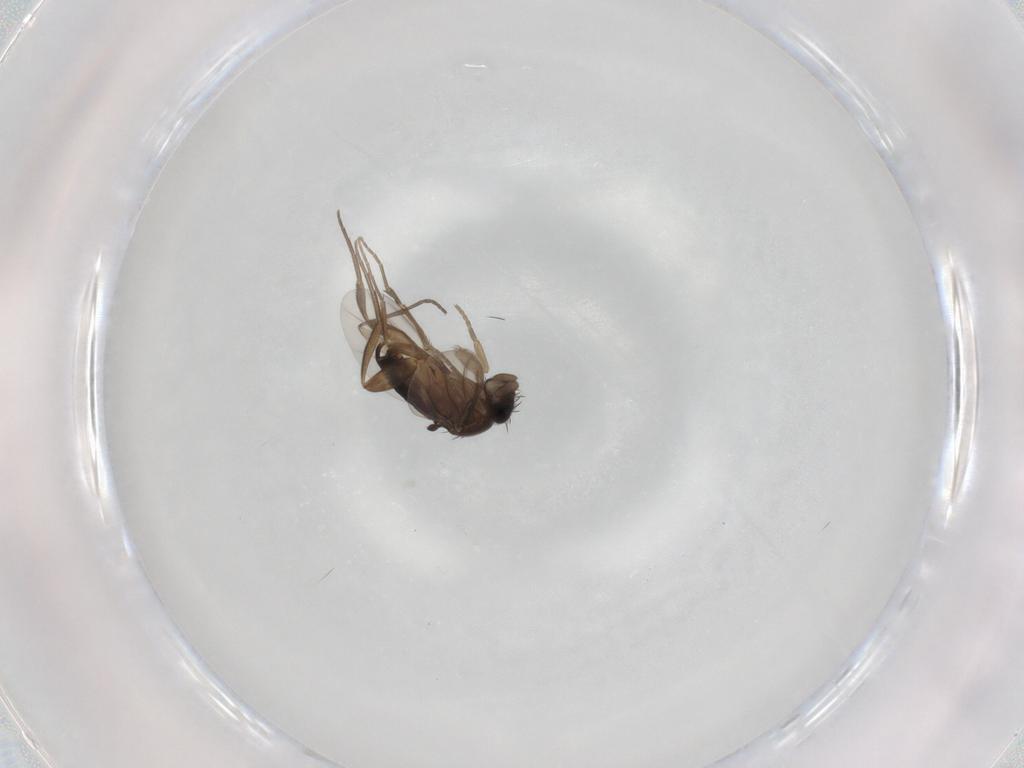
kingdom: Animalia
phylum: Arthropoda
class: Insecta
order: Diptera
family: Phoridae
